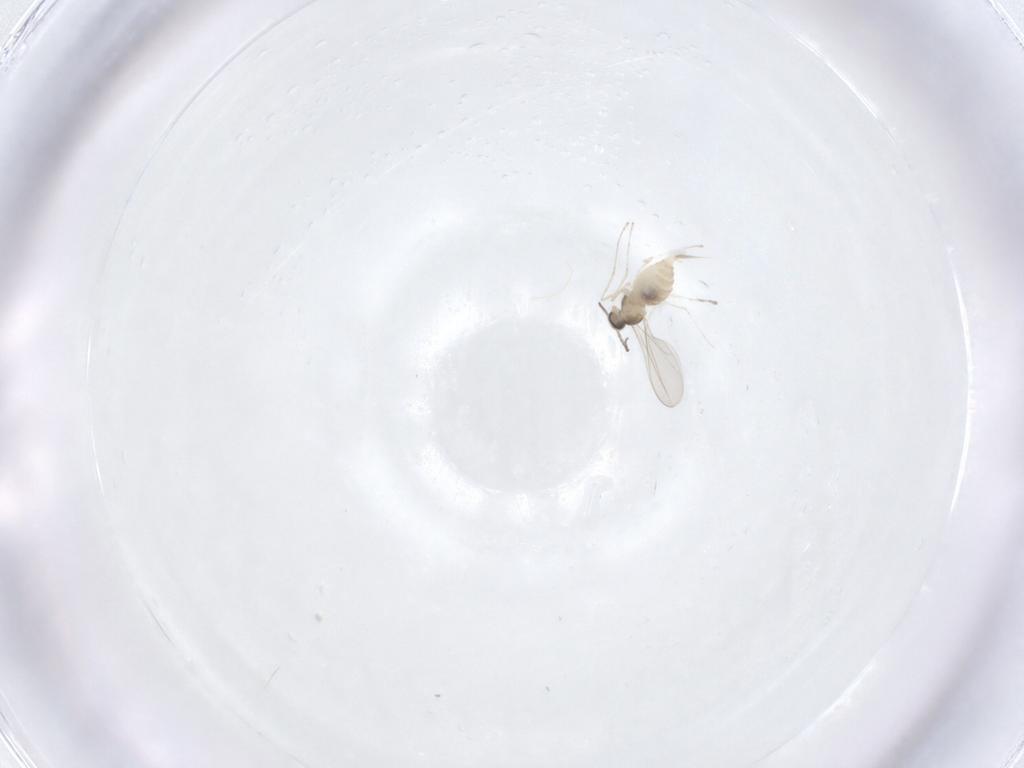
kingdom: Animalia
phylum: Arthropoda
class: Insecta
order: Diptera
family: Cecidomyiidae
